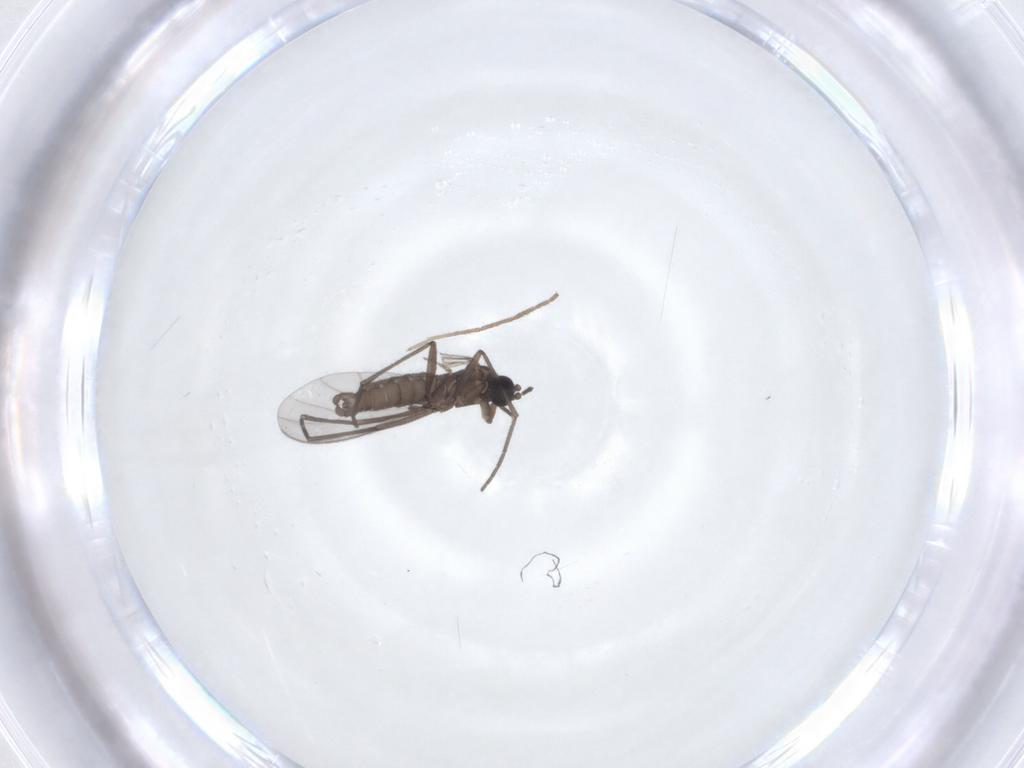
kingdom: Animalia
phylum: Arthropoda
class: Insecta
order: Diptera
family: Sciaridae
